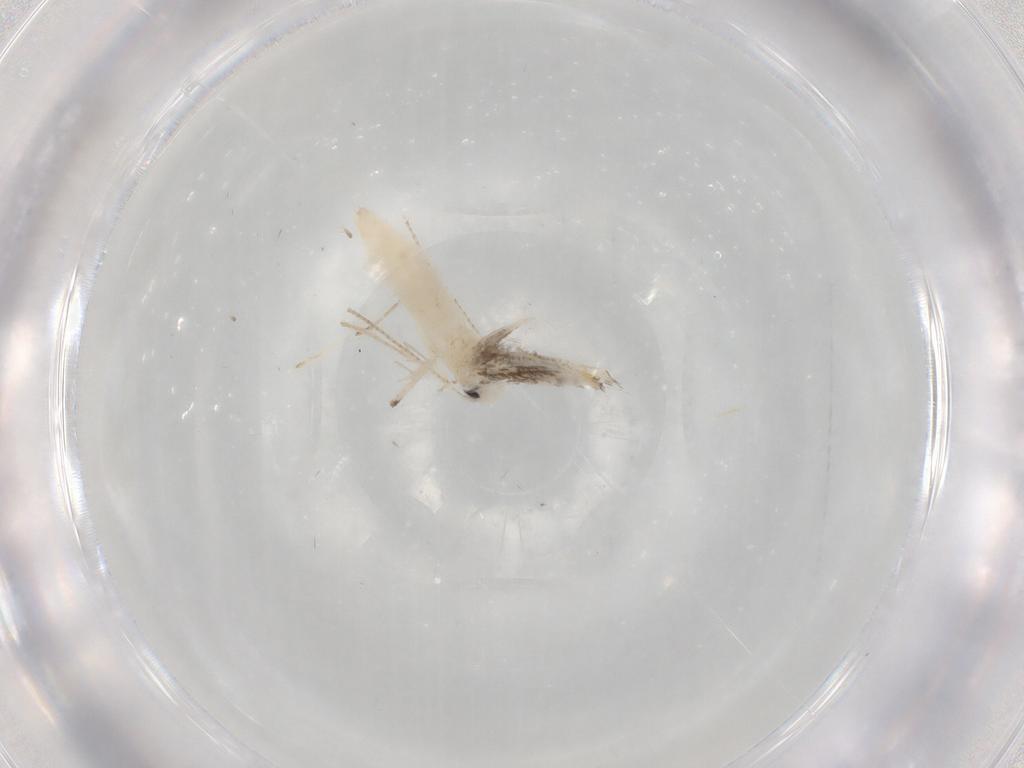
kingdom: Animalia
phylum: Arthropoda
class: Insecta
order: Lepidoptera
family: Nepticulidae
